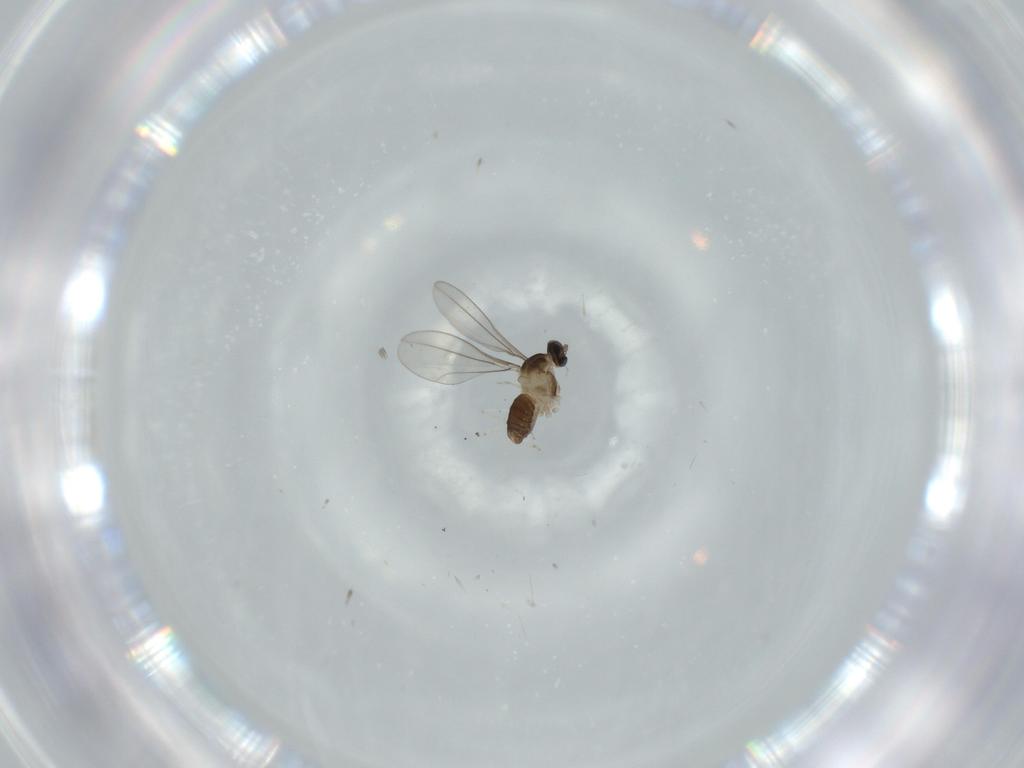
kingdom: Animalia
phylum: Arthropoda
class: Insecta
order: Diptera
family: Cecidomyiidae
